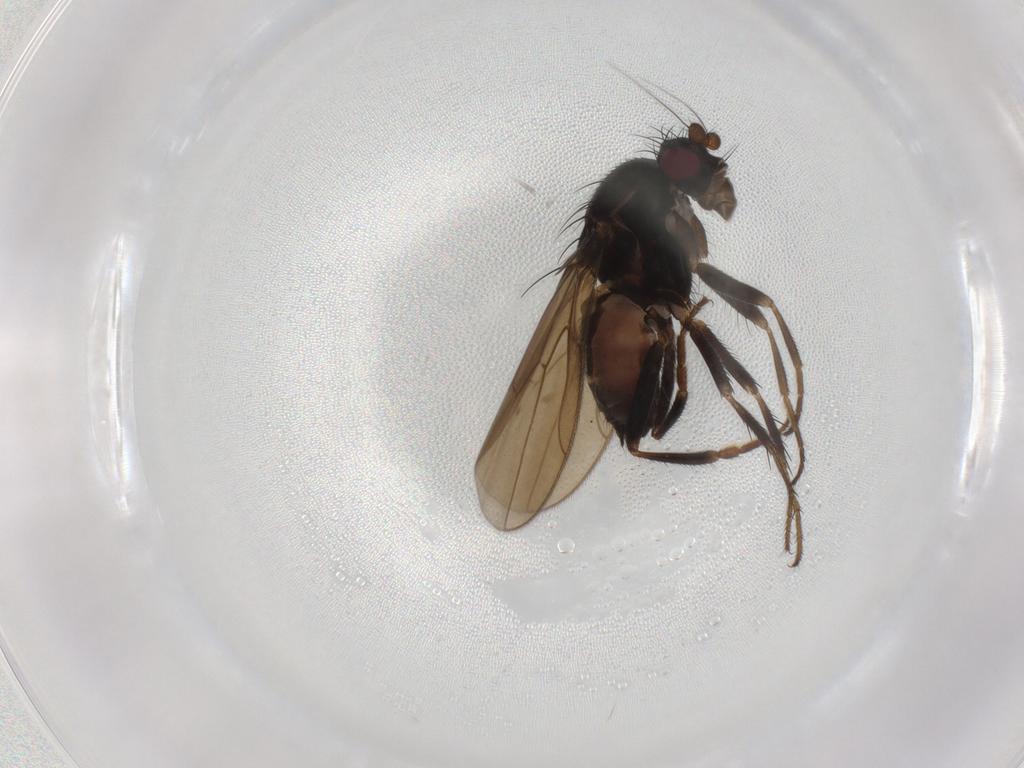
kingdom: Animalia
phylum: Arthropoda
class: Insecta
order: Diptera
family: Sphaeroceridae
